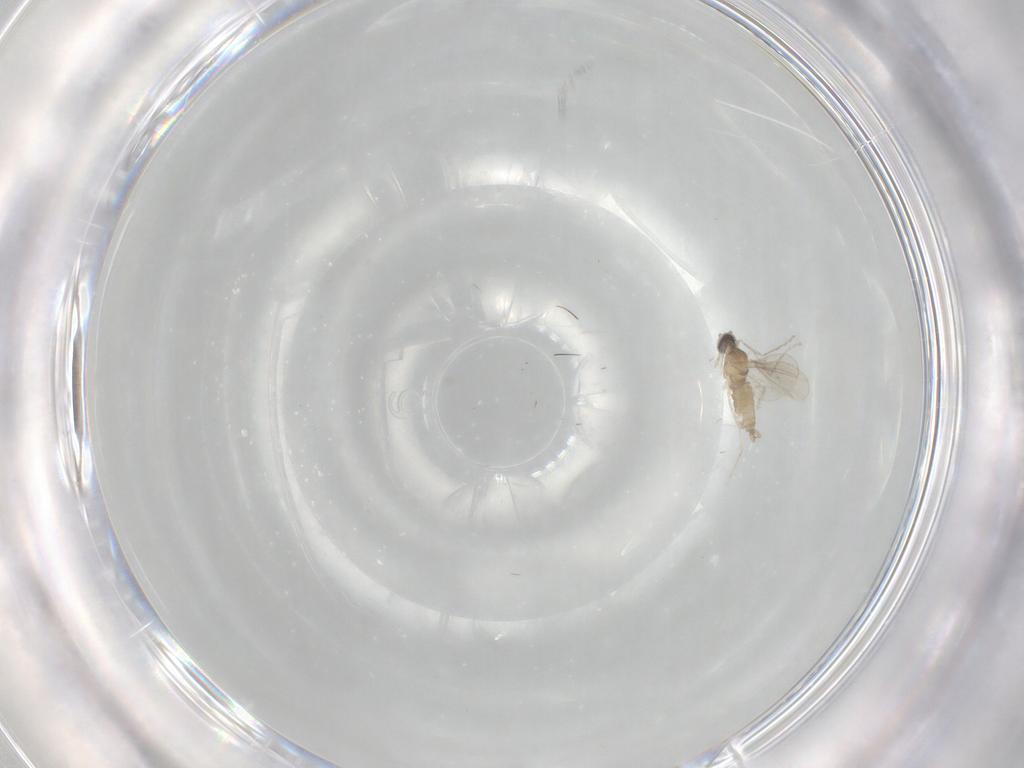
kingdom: Animalia
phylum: Arthropoda
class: Insecta
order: Diptera
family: Cecidomyiidae
